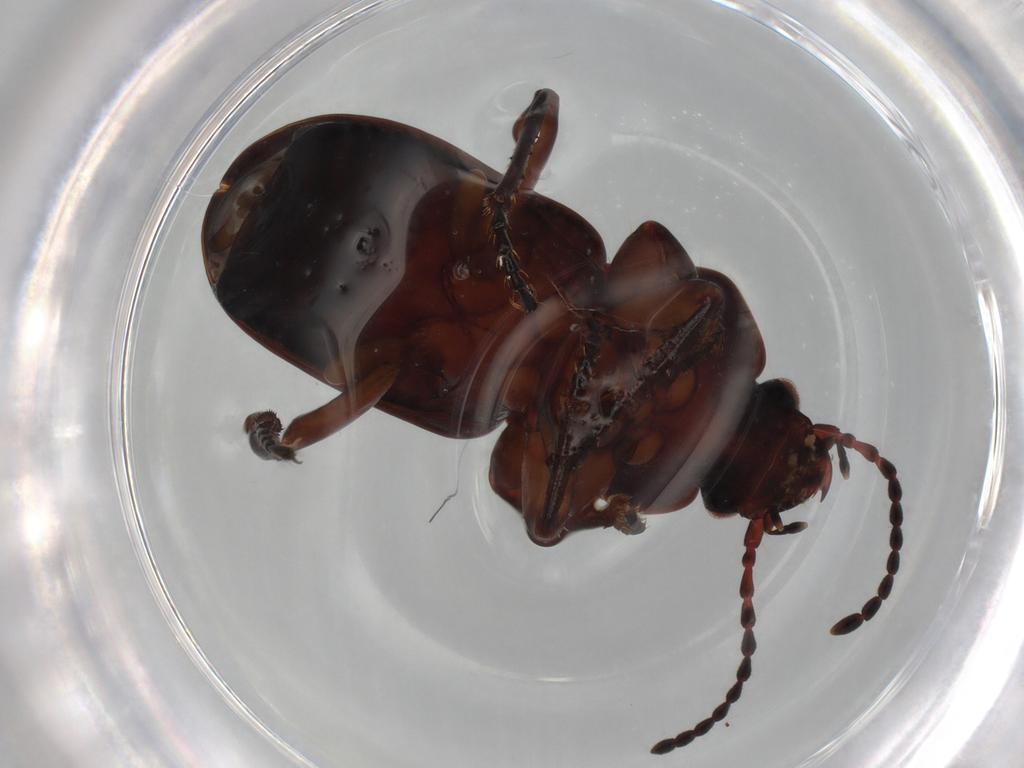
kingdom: Animalia
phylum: Arthropoda
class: Insecta
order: Coleoptera
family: Carabidae
